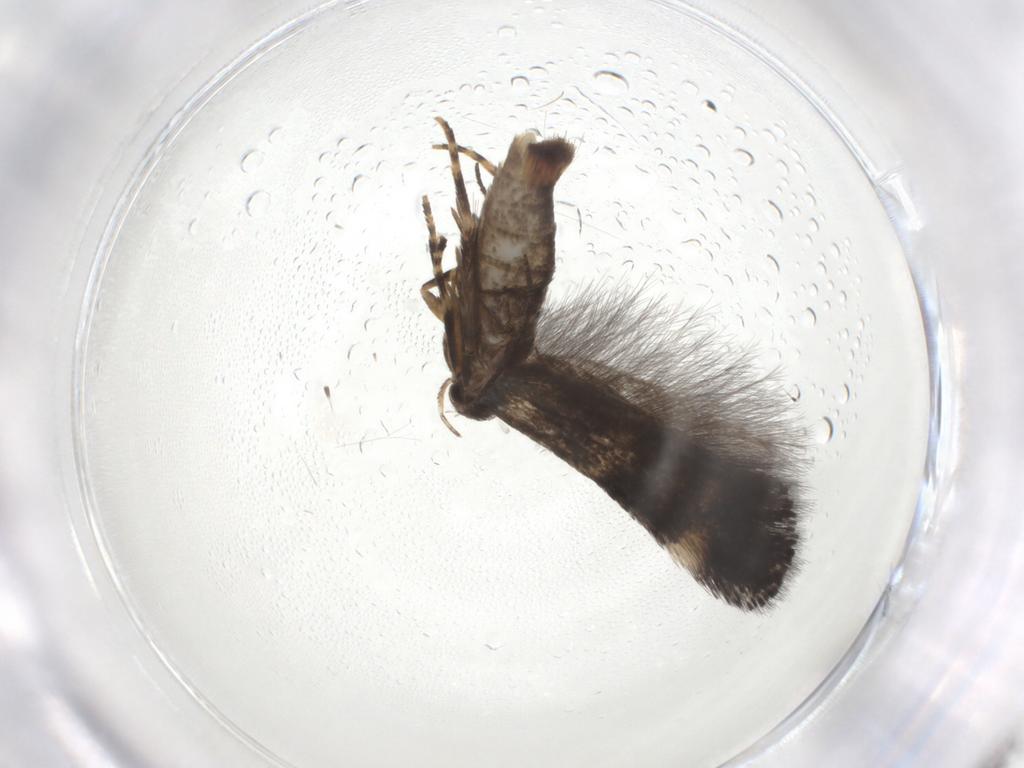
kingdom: Animalia
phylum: Arthropoda
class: Insecta
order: Lepidoptera
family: Elachistidae
